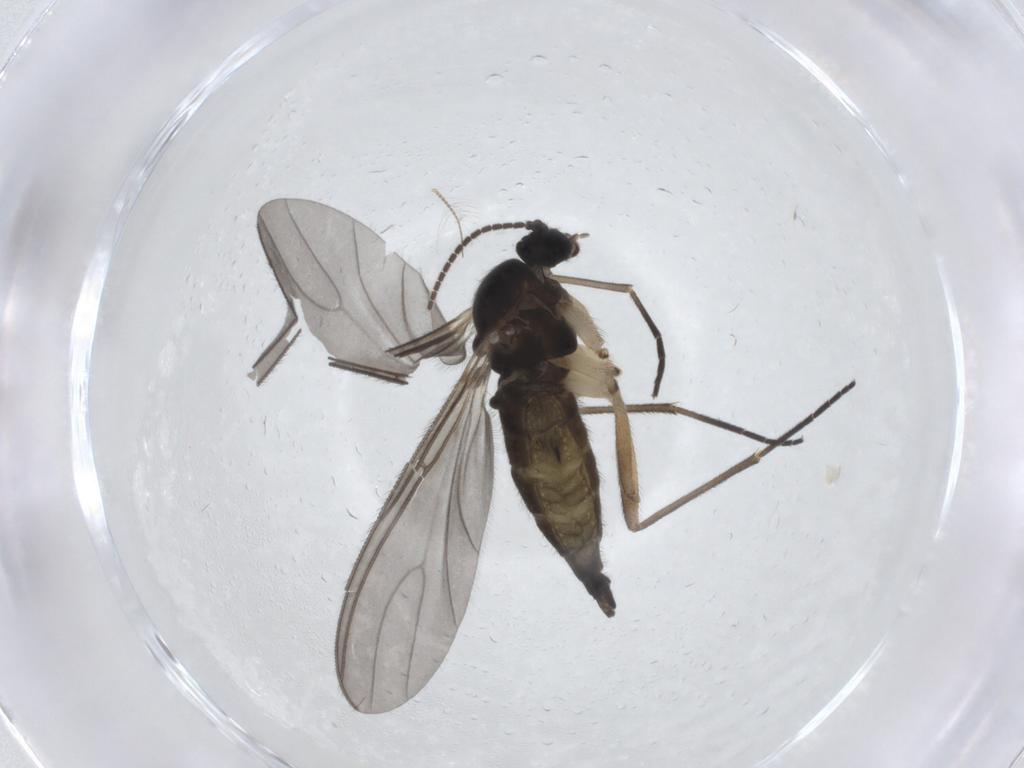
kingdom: Animalia
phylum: Arthropoda
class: Insecta
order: Diptera
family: Sciaridae
